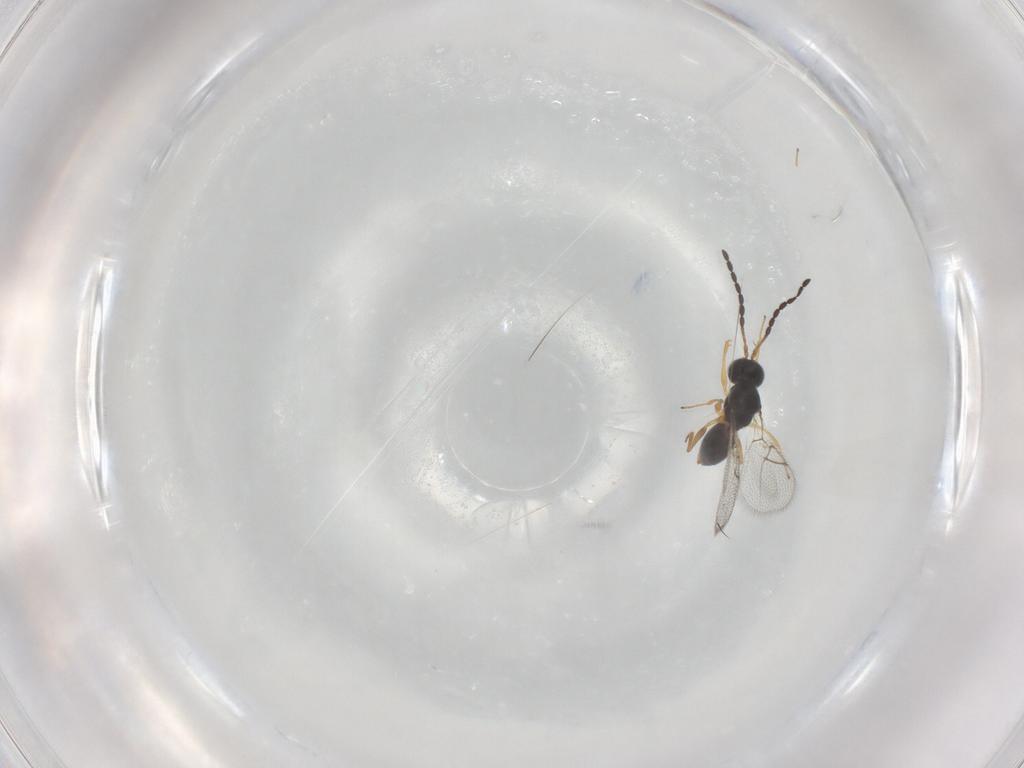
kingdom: Animalia
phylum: Arthropoda
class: Insecta
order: Hymenoptera
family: Figitidae
